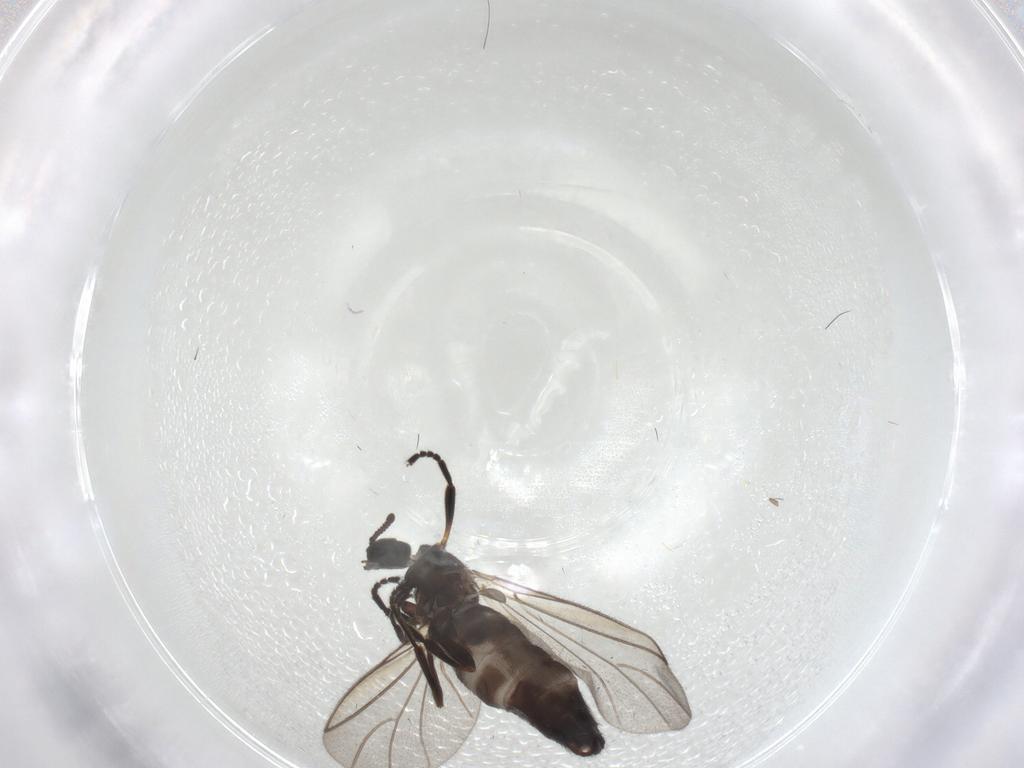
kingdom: Animalia
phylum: Arthropoda
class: Insecta
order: Diptera
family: Scatopsidae
